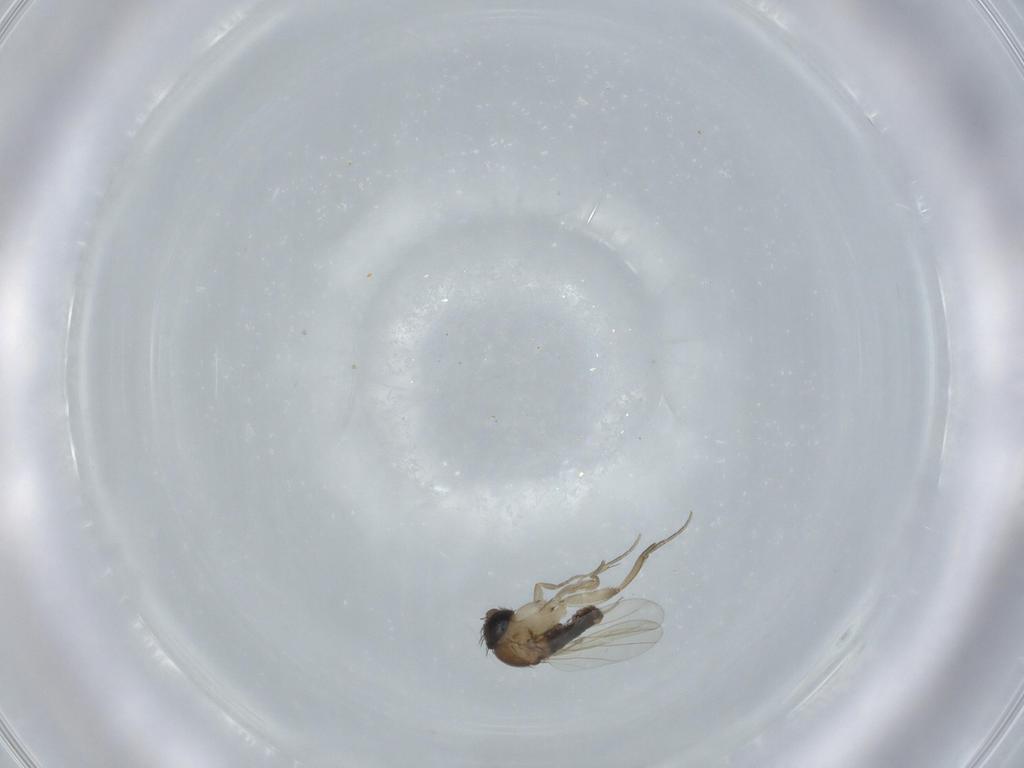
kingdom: Animalia
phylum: Arthropoda
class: Insecta
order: Diptera
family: Phoridae
